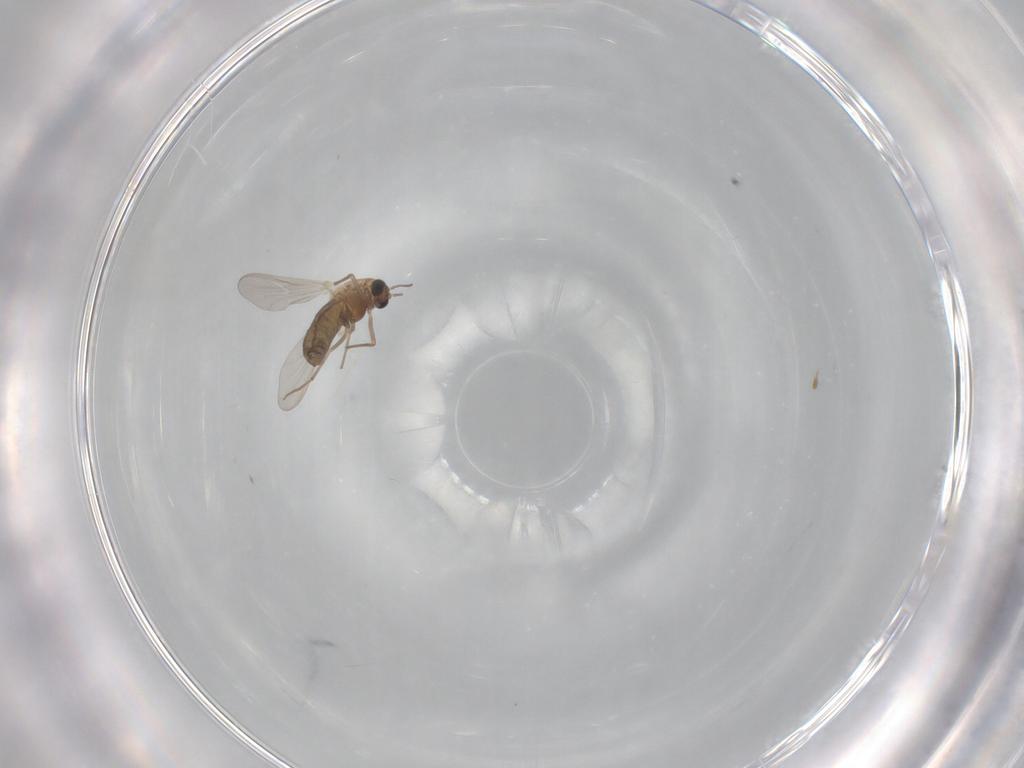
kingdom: Animalia
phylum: Arthropoda
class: Insecta
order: Diptera
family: Chironomidae
